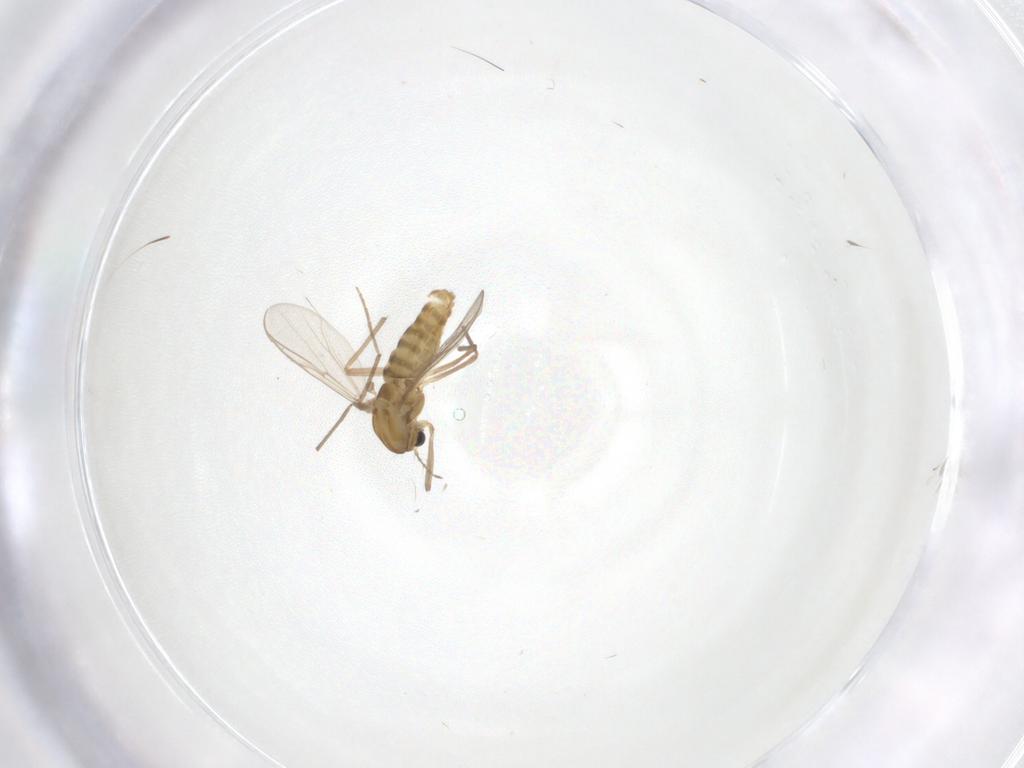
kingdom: Animalia
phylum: Arthropoda
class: Insecta
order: Diptera
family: Chironomidae
